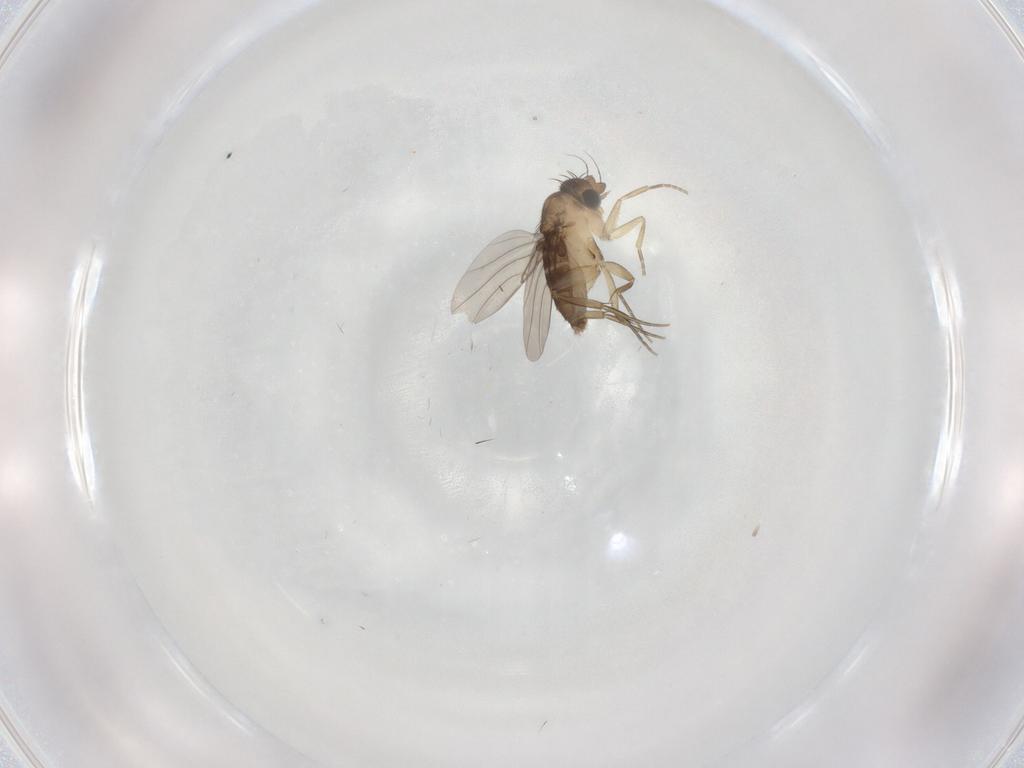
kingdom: Animalia
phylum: Arthropoda
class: Insecta
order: Diptera
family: Phoridae
